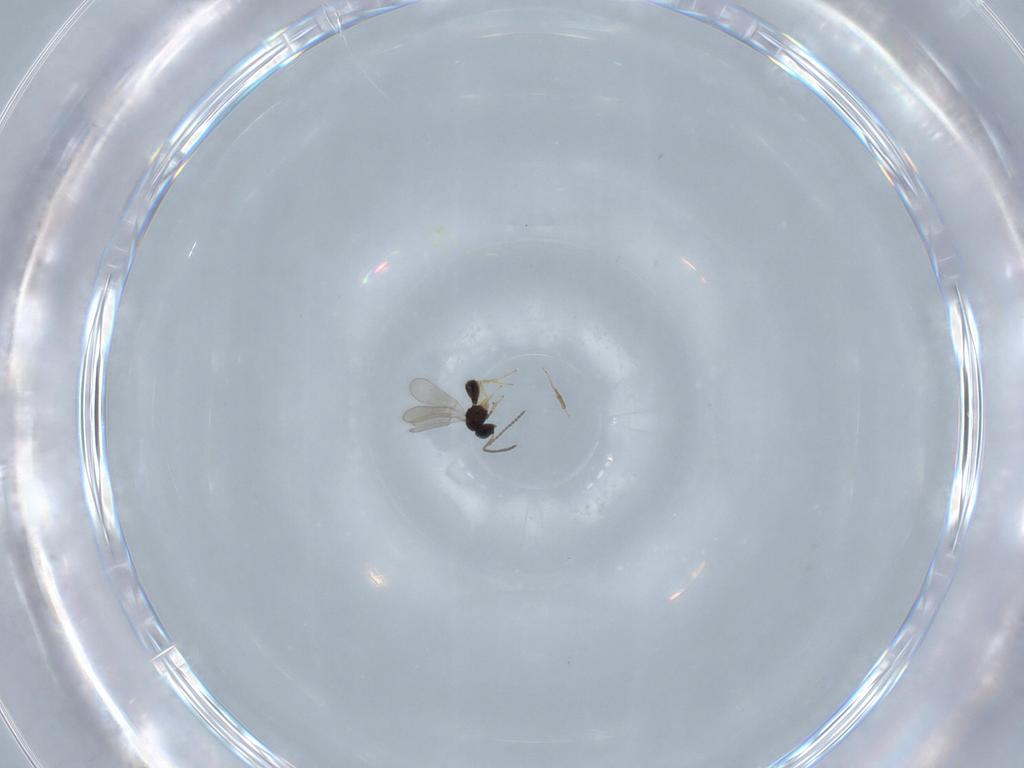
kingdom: Animalia
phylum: Arthropoda
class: Insecta
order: Hymenoptera
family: Scelionidae
